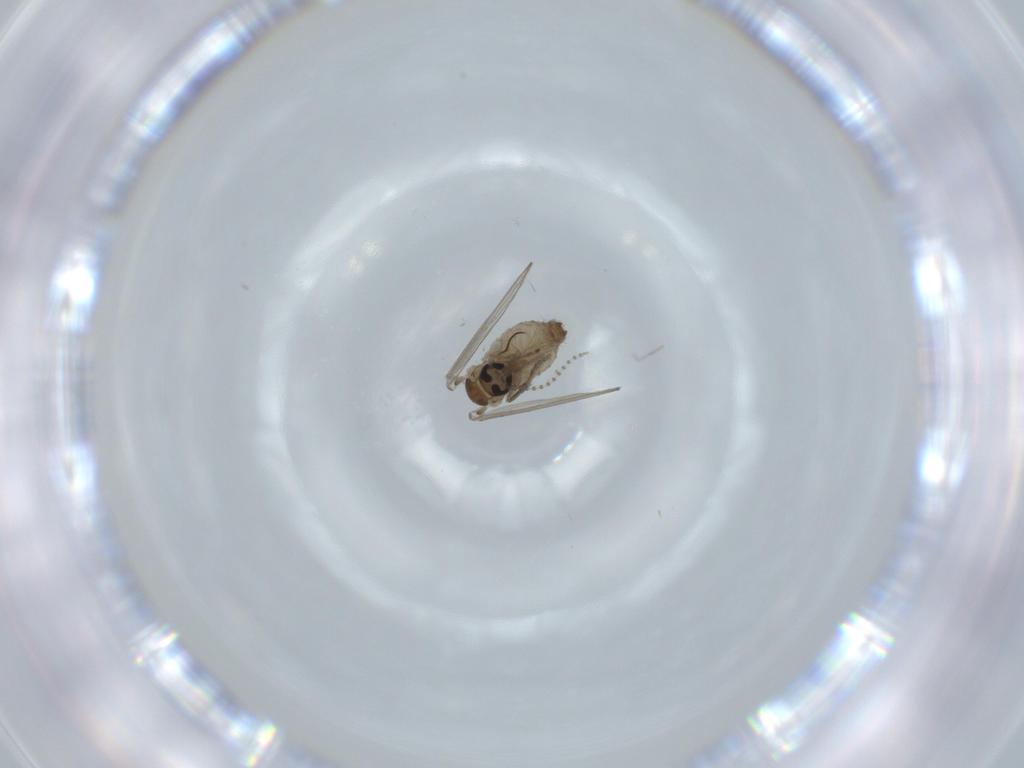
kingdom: Animalia
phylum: Arthropoda
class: Insecta
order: Diptera
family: Psychodidae
